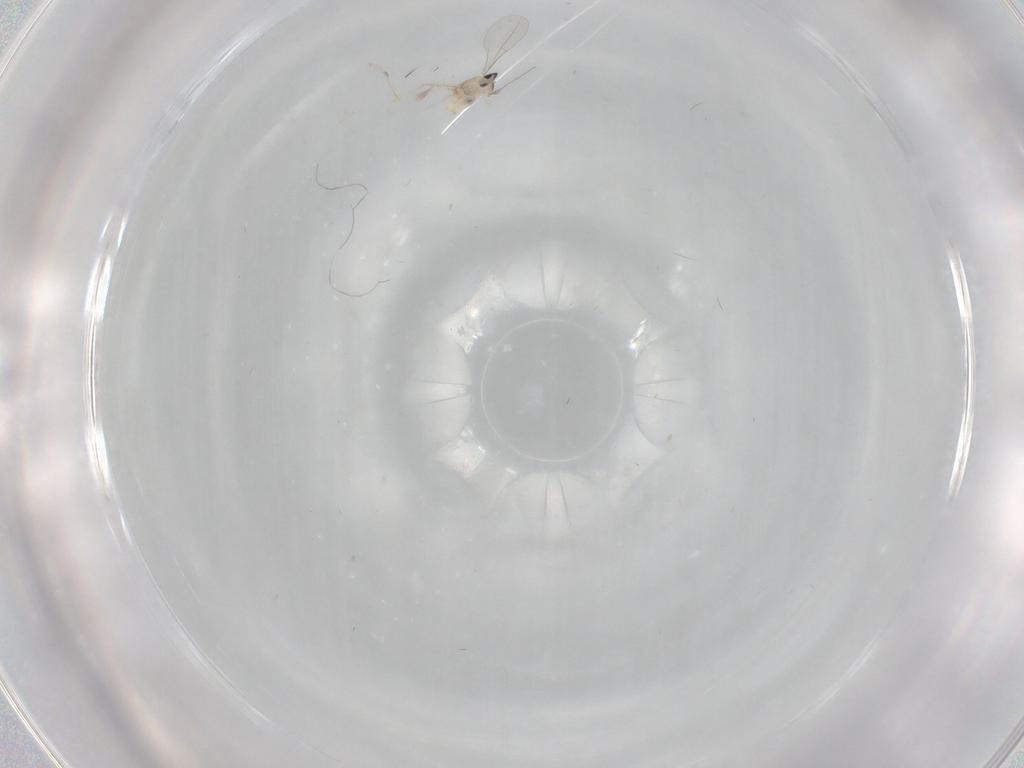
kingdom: Animalia
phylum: Arthropoda
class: Insecta
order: Diptera
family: Cecidomyiidae
